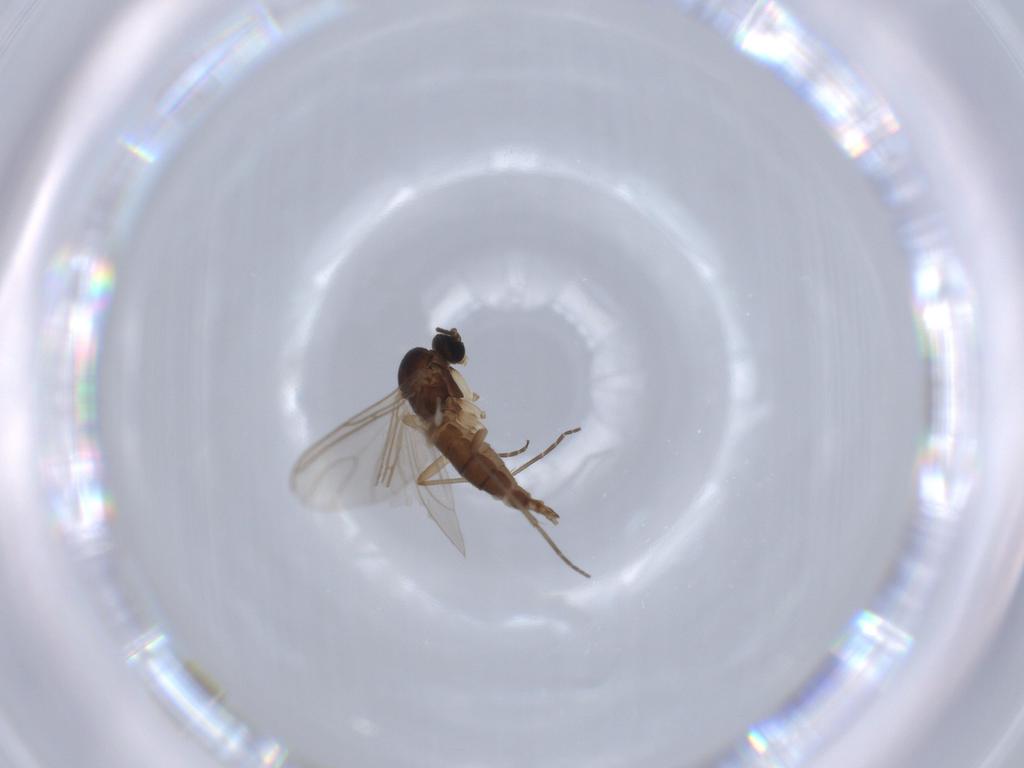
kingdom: Animalia
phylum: Arthropoda
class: Insecta
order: Diptera
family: Sciaridae
